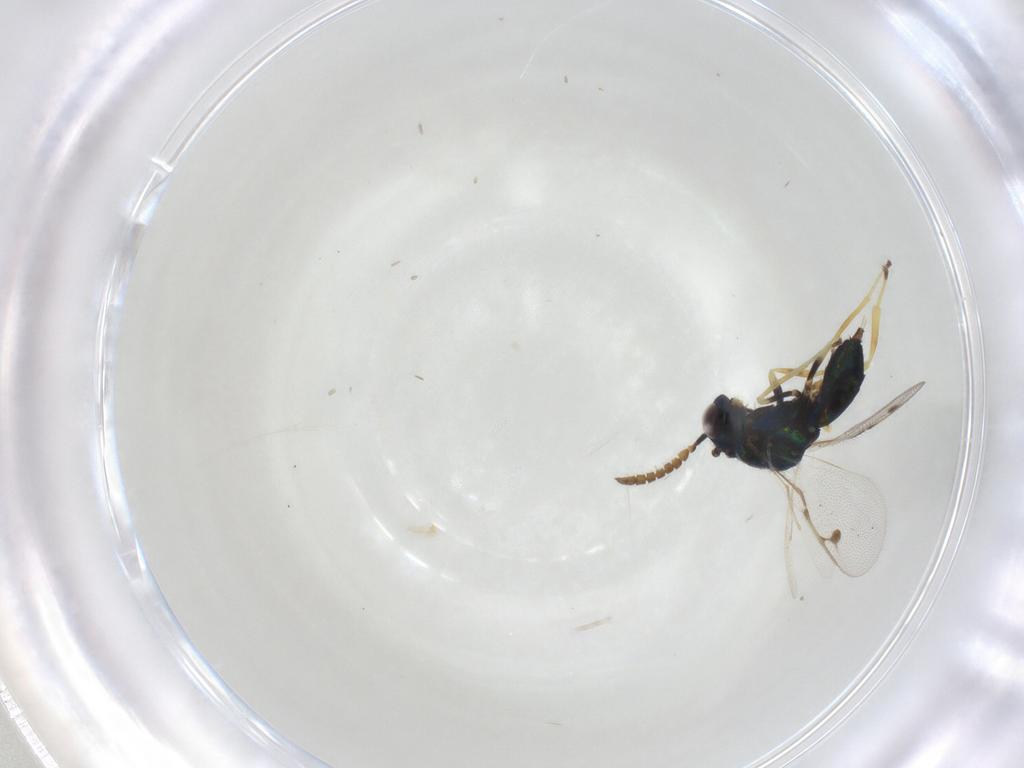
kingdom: Animalia
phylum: Arthropoda
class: Insecta
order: Hymenoptera
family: Pirenidae
